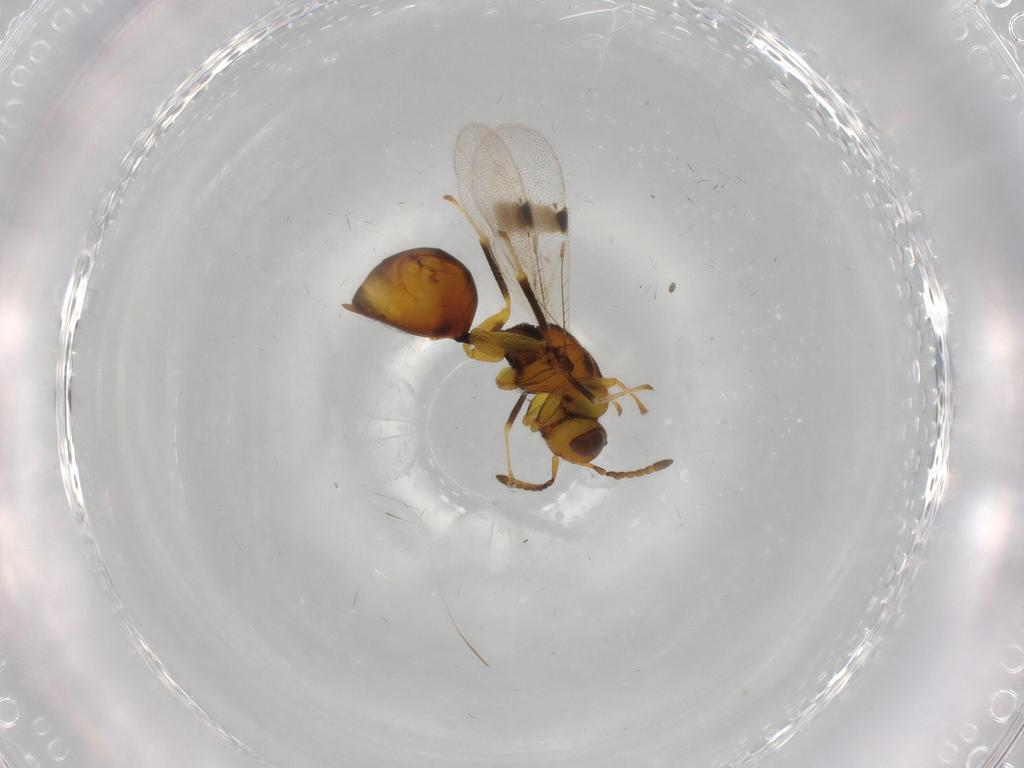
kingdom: Animalia
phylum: Arthropoda
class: Insecta
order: Hymenoptera
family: Eurytomidae
